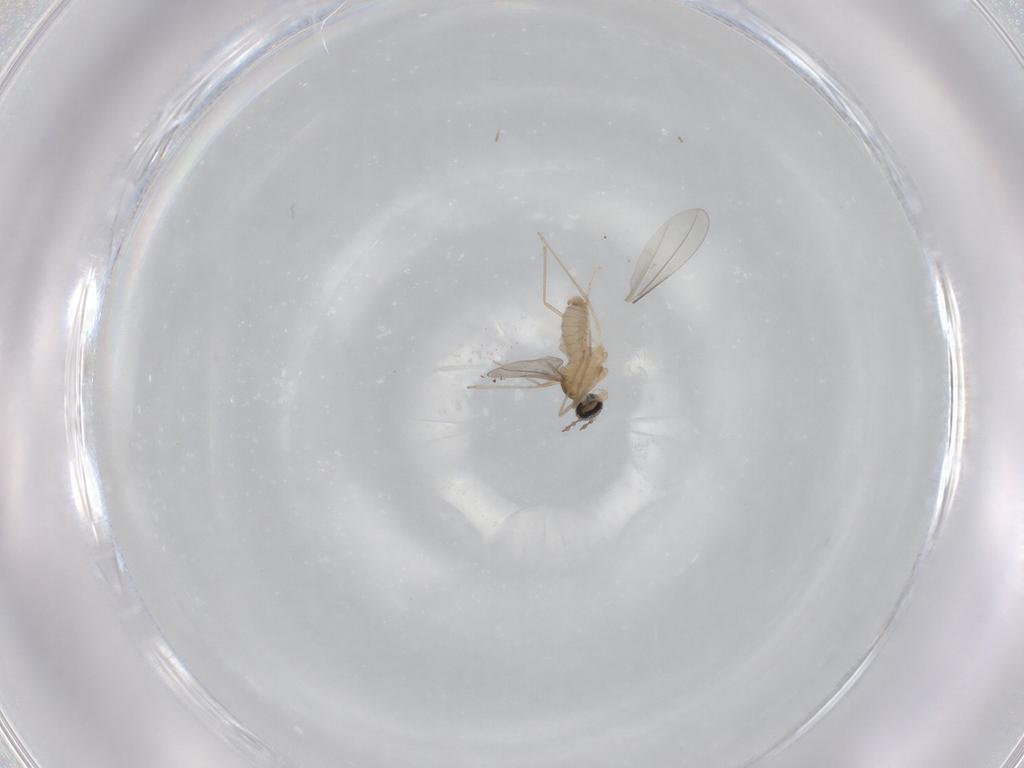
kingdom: Animalia
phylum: Arthropoda
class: Insecta
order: Diptera
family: Cecidomyiidae
